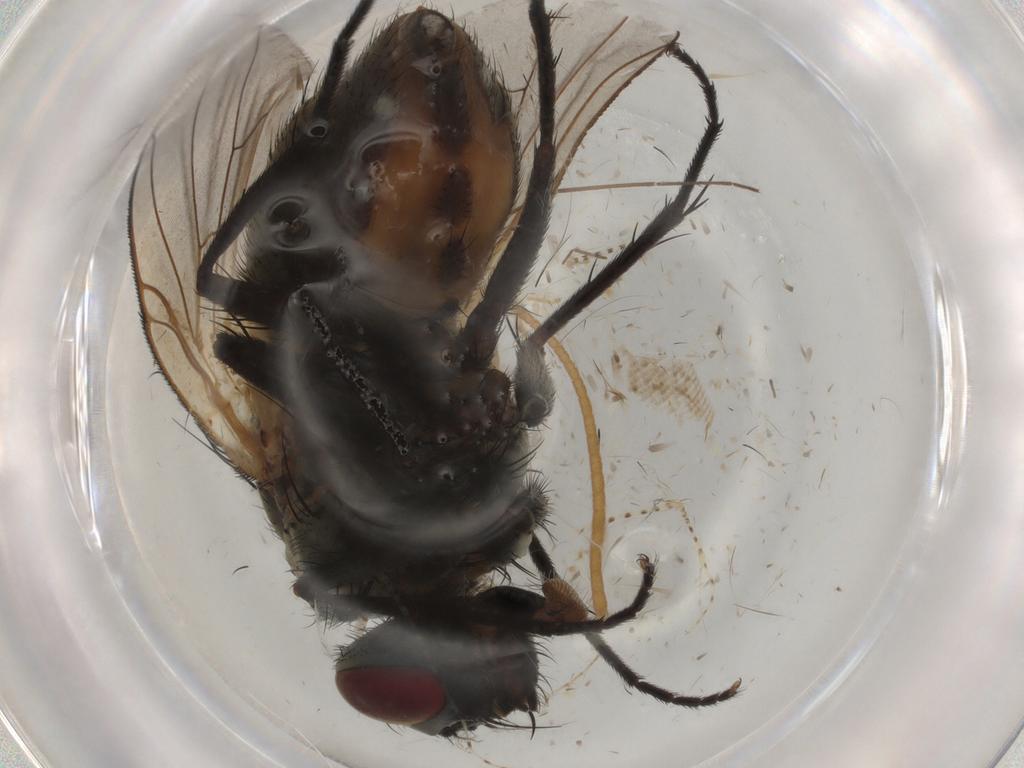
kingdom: Animalia
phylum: Arthropoda
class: Insecta
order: Diptera
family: Muscidae
